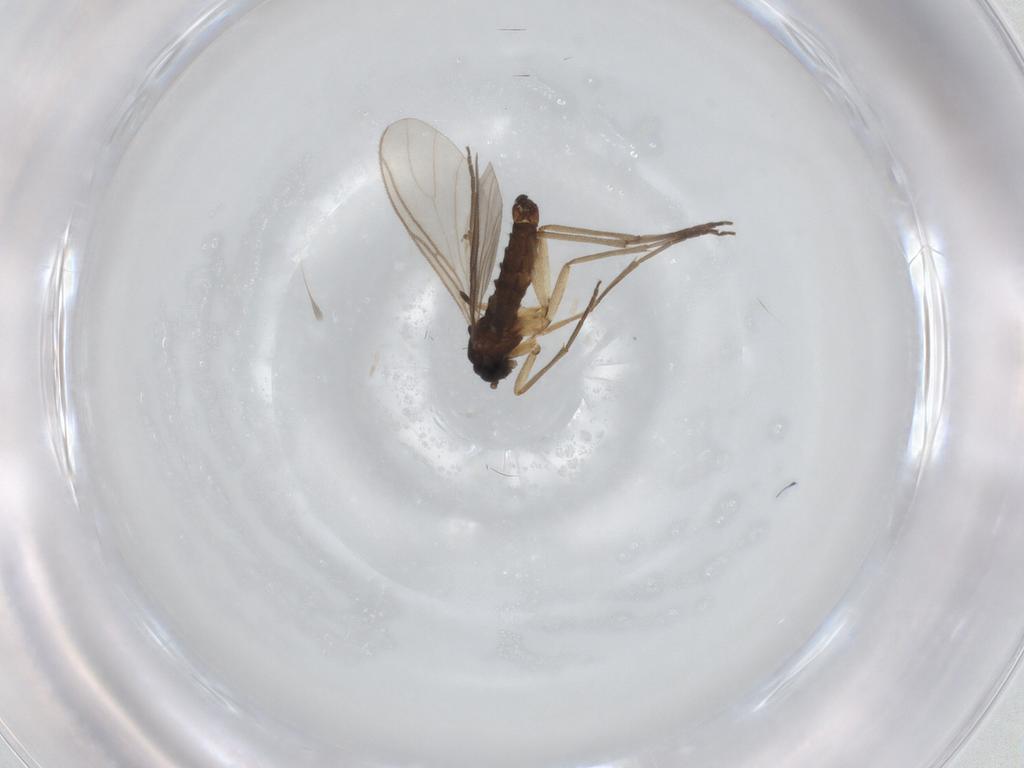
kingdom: Animalia
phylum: Arthropoda
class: Insecta
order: Diptera
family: Sciaridae
